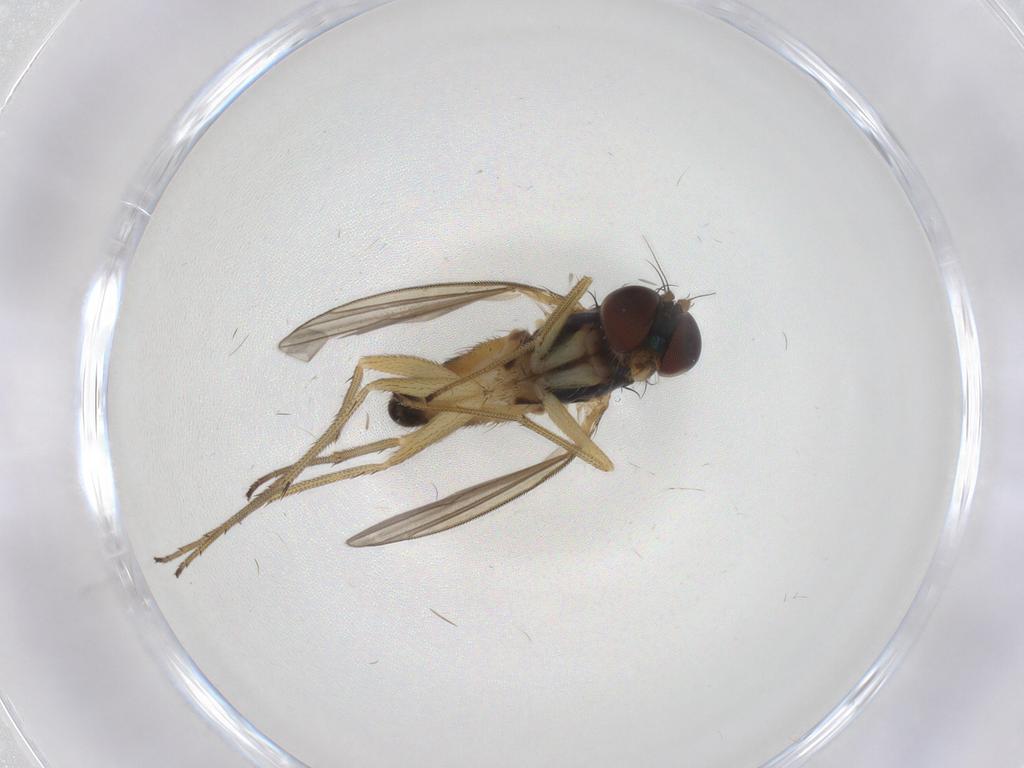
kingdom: Animalia
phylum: Arthropoda
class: Insecta
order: Diptera
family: Dolichopodidae
